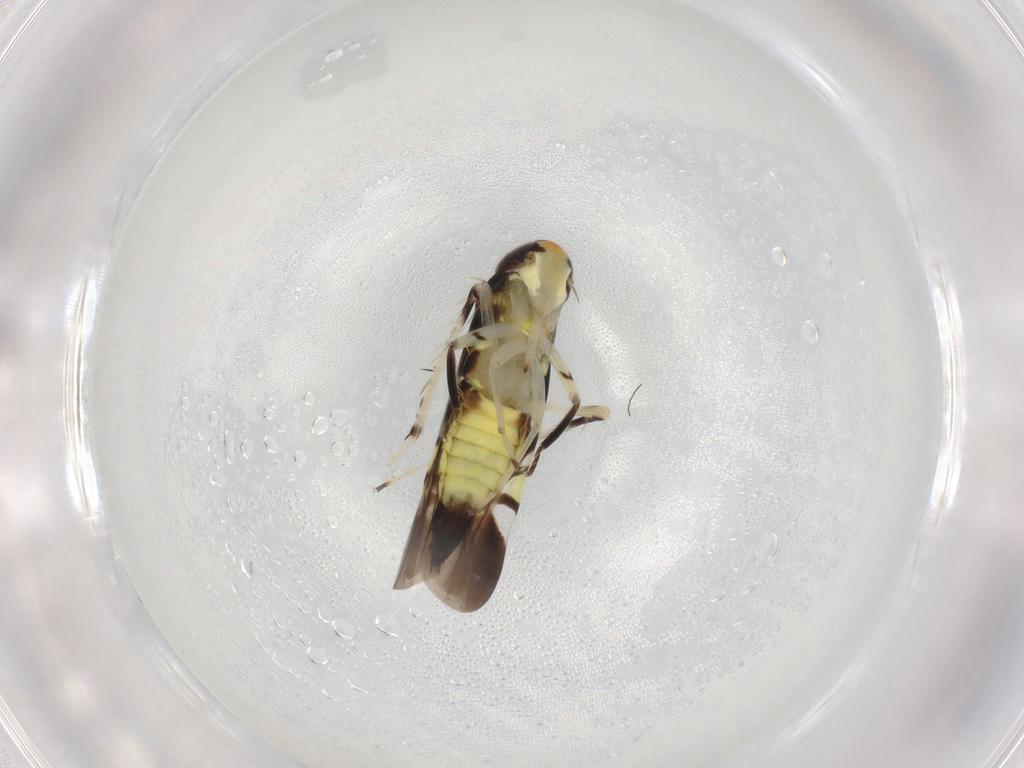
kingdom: Animalia
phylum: Arthropoda
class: Insecta
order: Hemiptera
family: Cicadellidae
